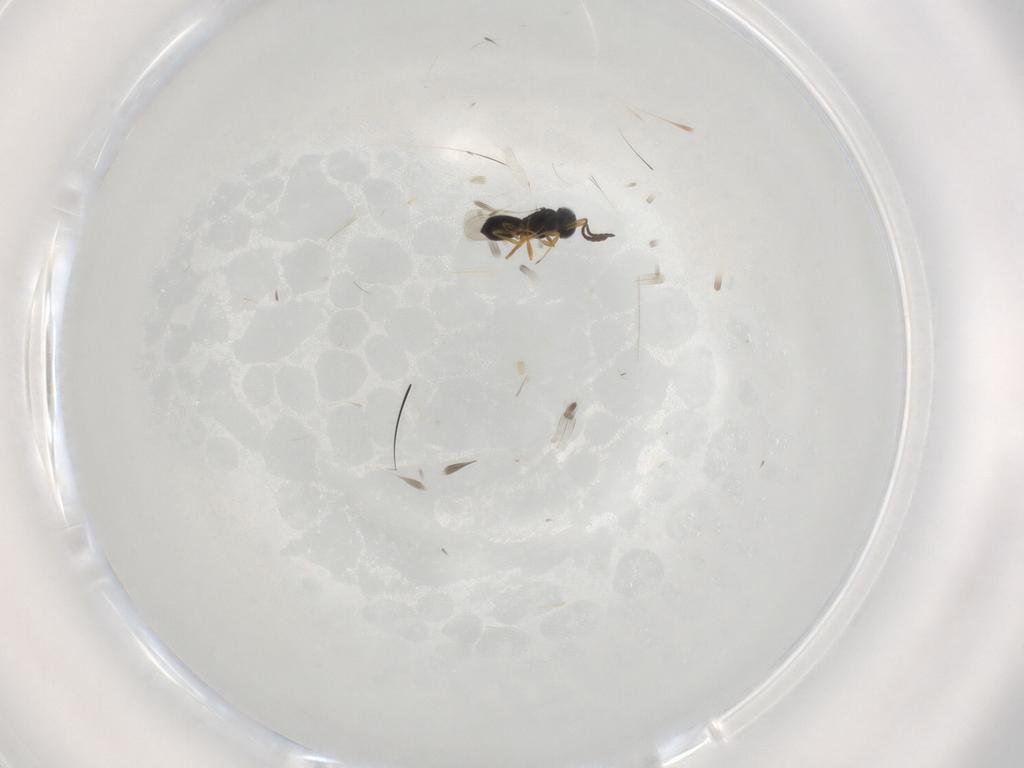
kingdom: Animalia
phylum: Arthropoda
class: Insecta
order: Hymenoptera
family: Scelionidae
